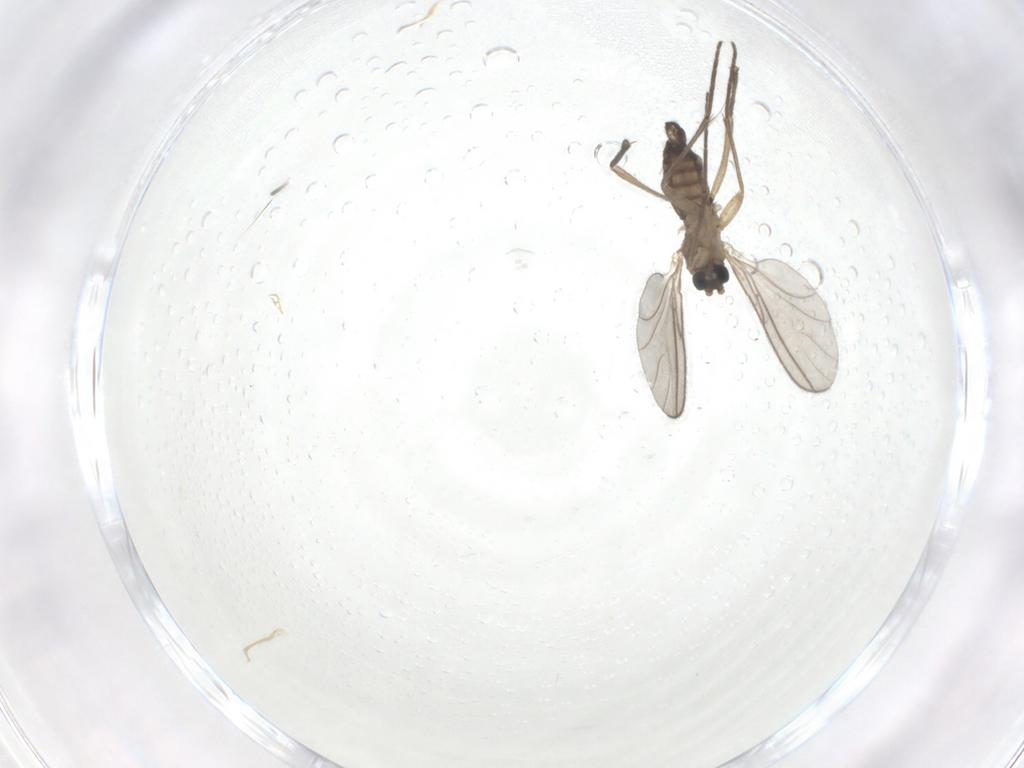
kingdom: Animalia
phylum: Arthropoda
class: Insecta
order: Diptera
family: Sciaridae
